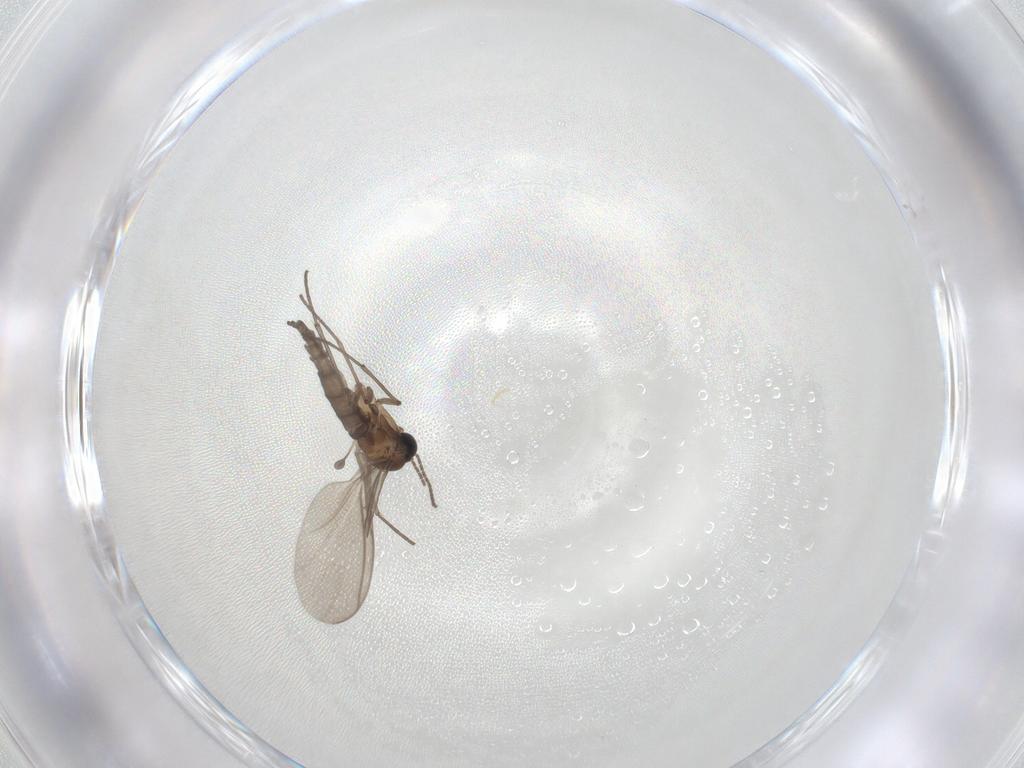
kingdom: Animalia
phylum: Arthropoda
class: Insecta
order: Diptera
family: Sciaridae
